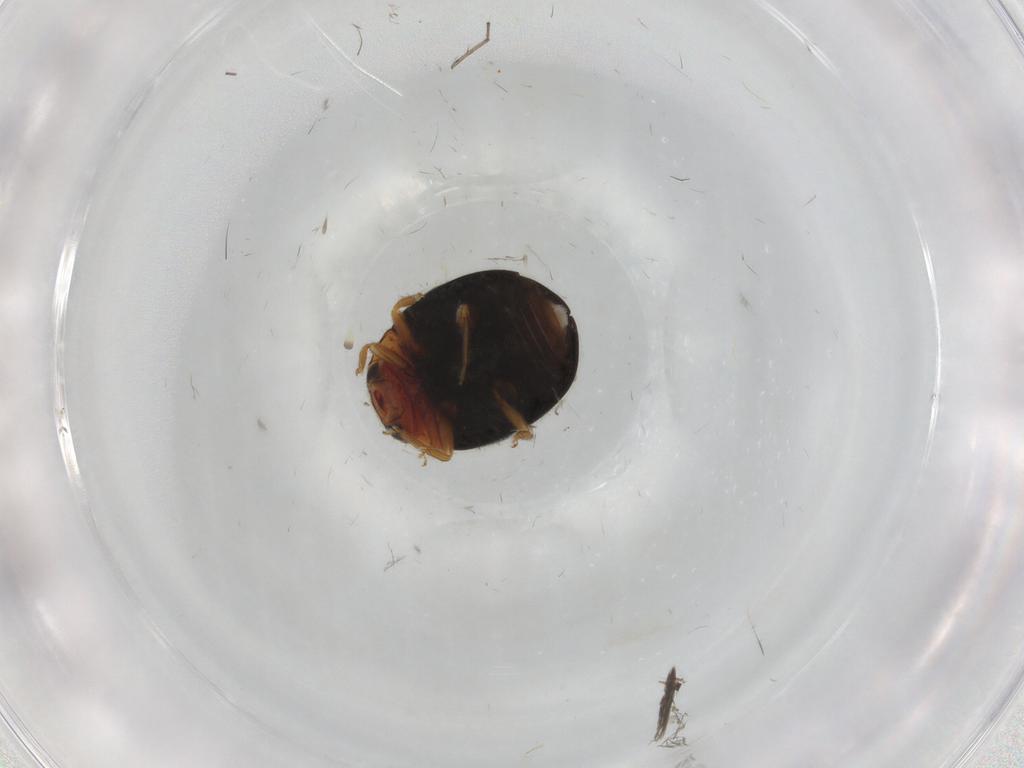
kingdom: Animalia
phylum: Arthropoda
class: Insecta
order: Coleoptera
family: Coccinellidae
